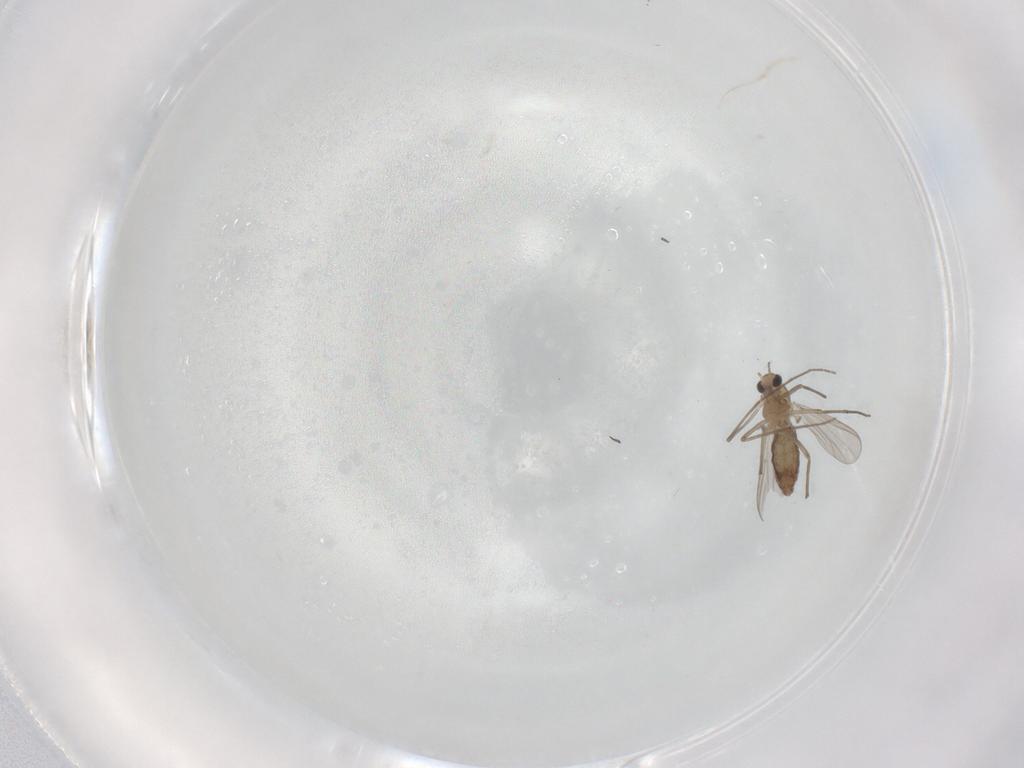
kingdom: Animalia
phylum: Arthropoda
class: Insecta
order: Diptera
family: Chironomidae
